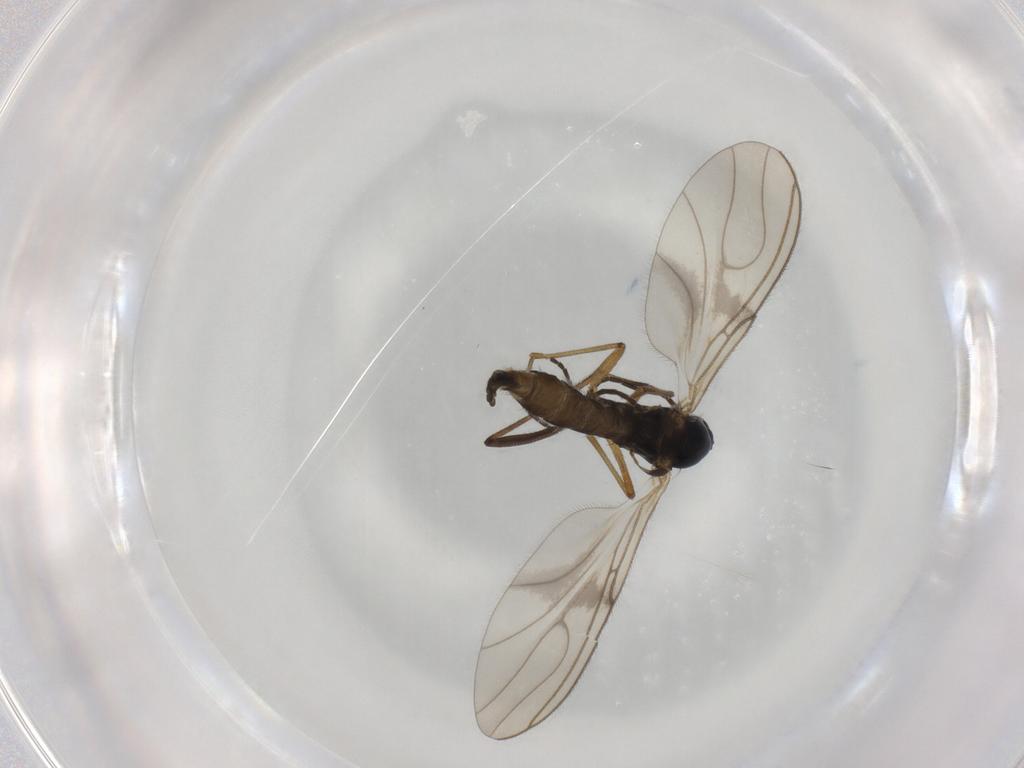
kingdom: Animalia
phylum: Arthropoda
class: Insecta
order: Diptera
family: Sciaridae
